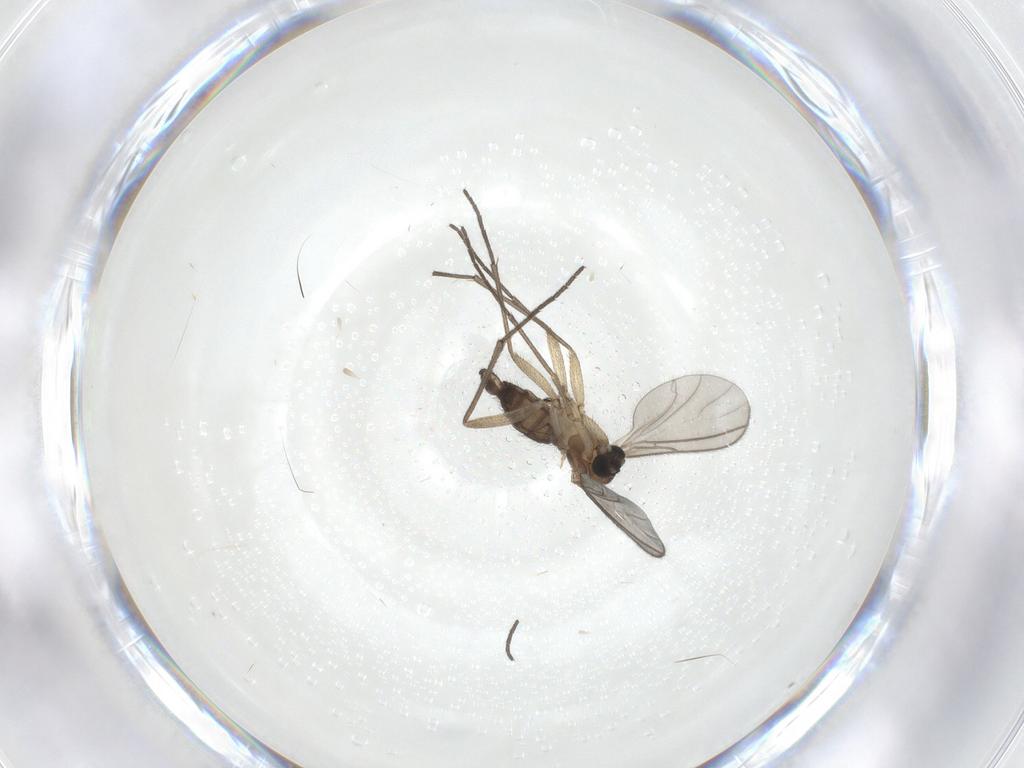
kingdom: Animalia
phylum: Arthropoda
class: Insecta
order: Diptera
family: Sciaridae
